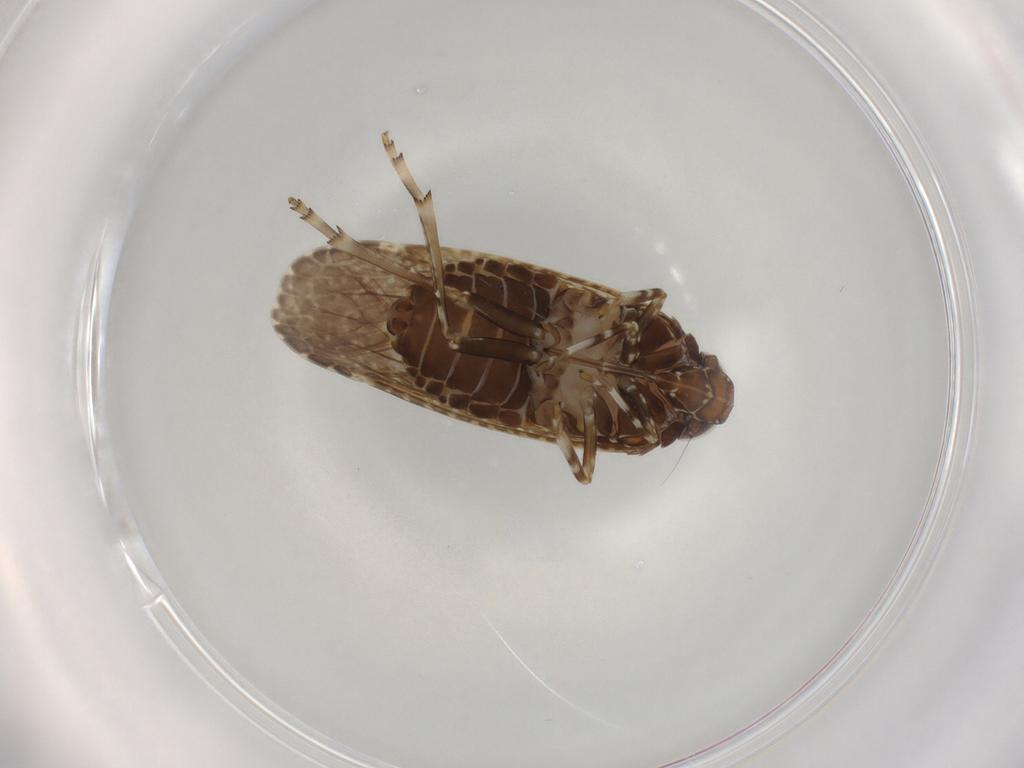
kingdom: Animalia
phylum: Arthropoda
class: Insecta
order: Hemiptera
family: Achilidae
